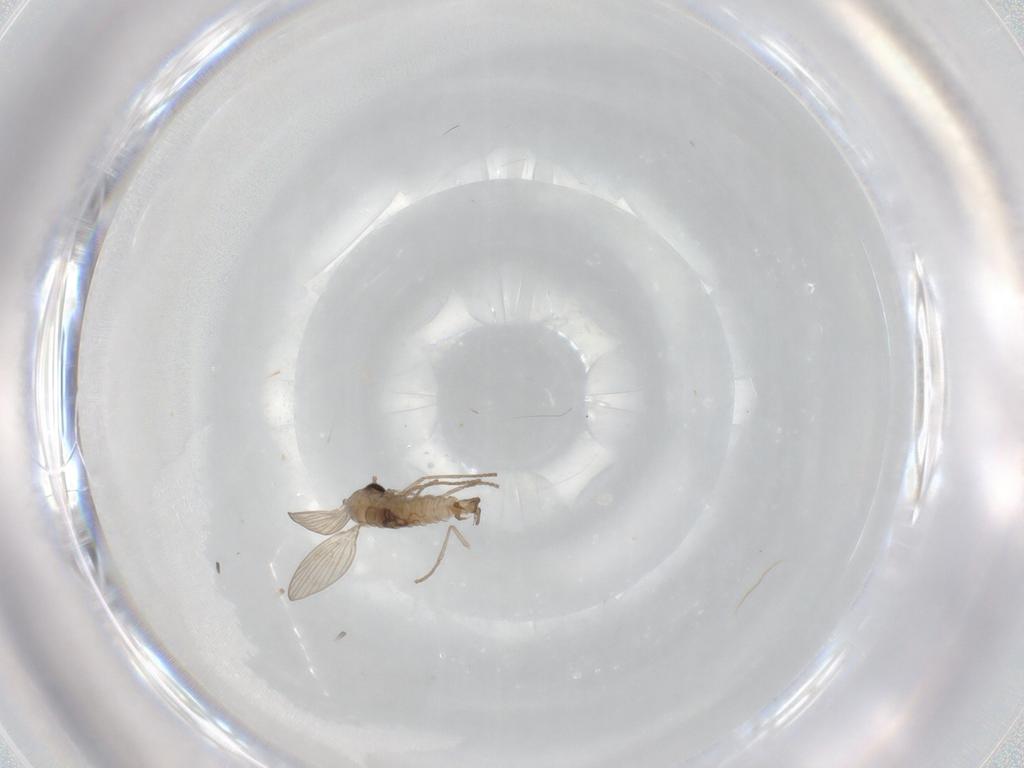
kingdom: Animalia
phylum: Arthropoda
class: Insecta
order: Diptera
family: Psychodidae
